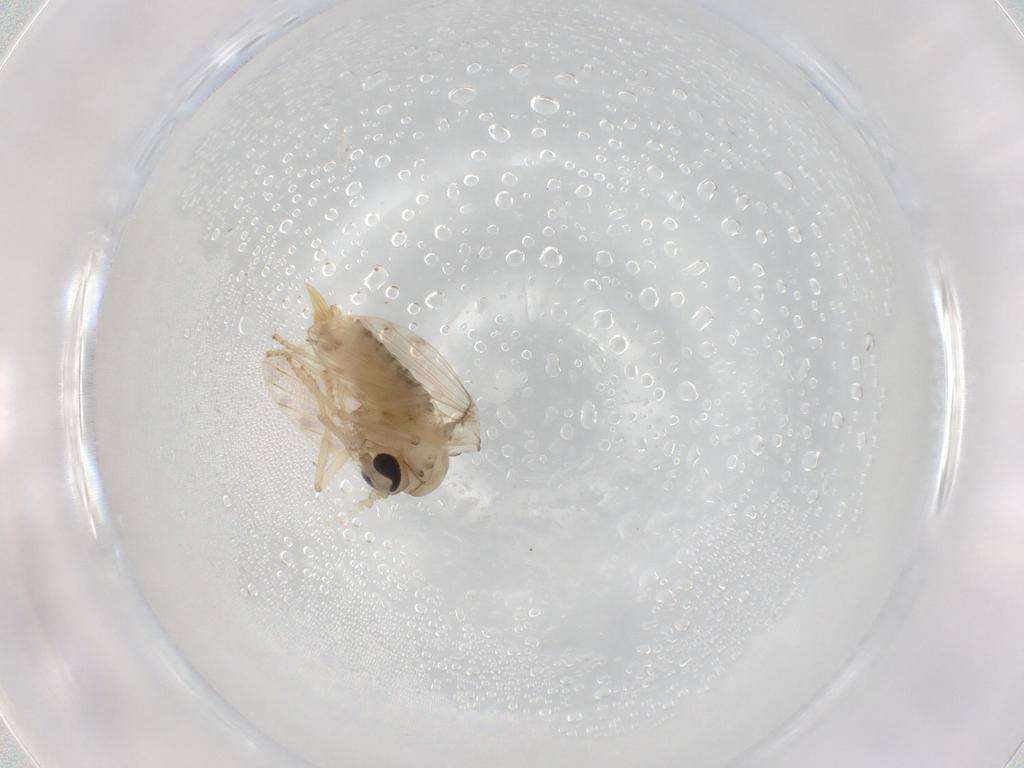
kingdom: Animalia
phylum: Arthropoda
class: Insecta
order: Diptera
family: Psychodidae
